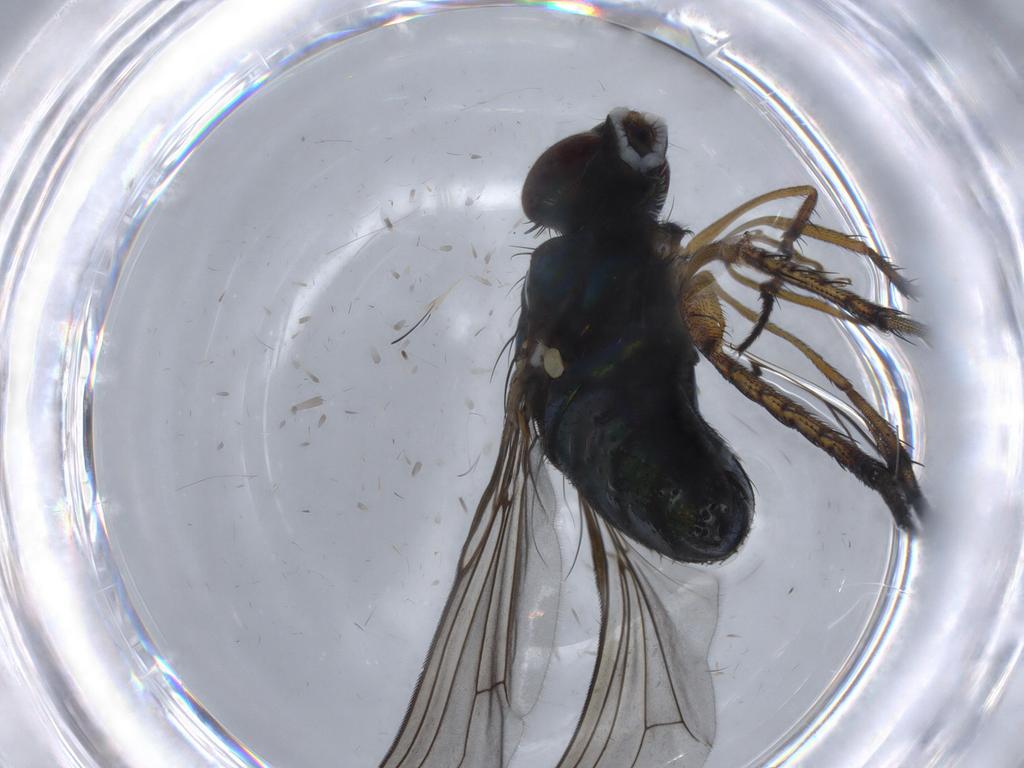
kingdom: Animalia
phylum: Arthropoda
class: Insecta
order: Diptera
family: Dolichopodidae
